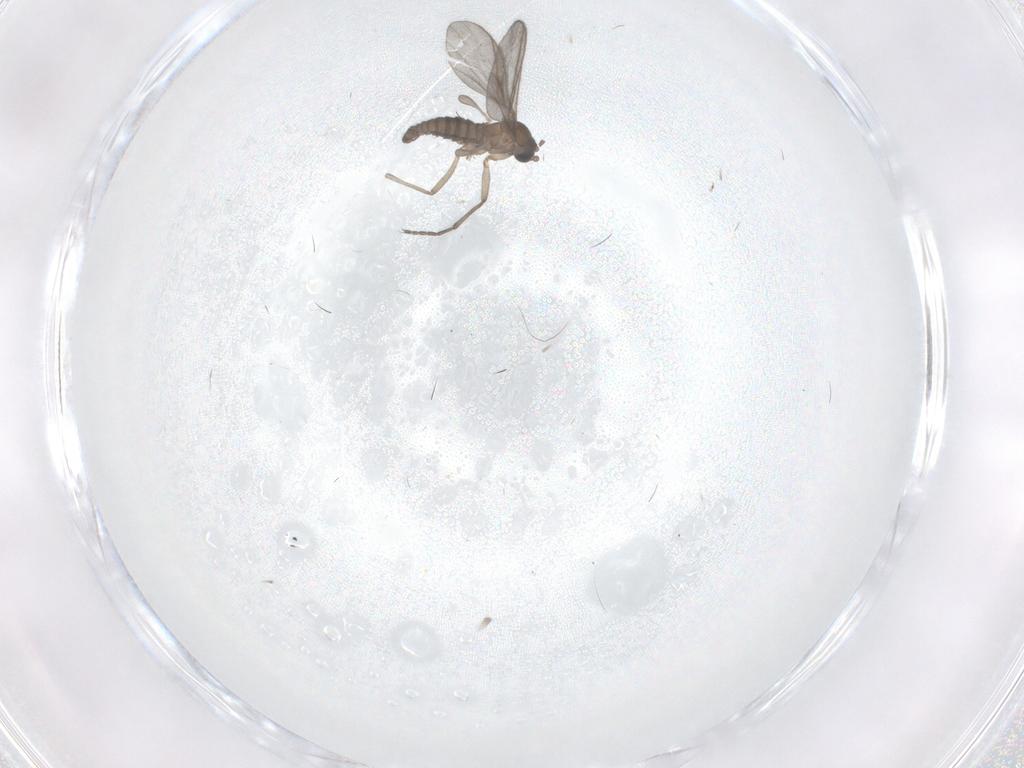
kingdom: Animalia
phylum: Arthropoda
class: Insecta
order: Diptera
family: Sciaridae
